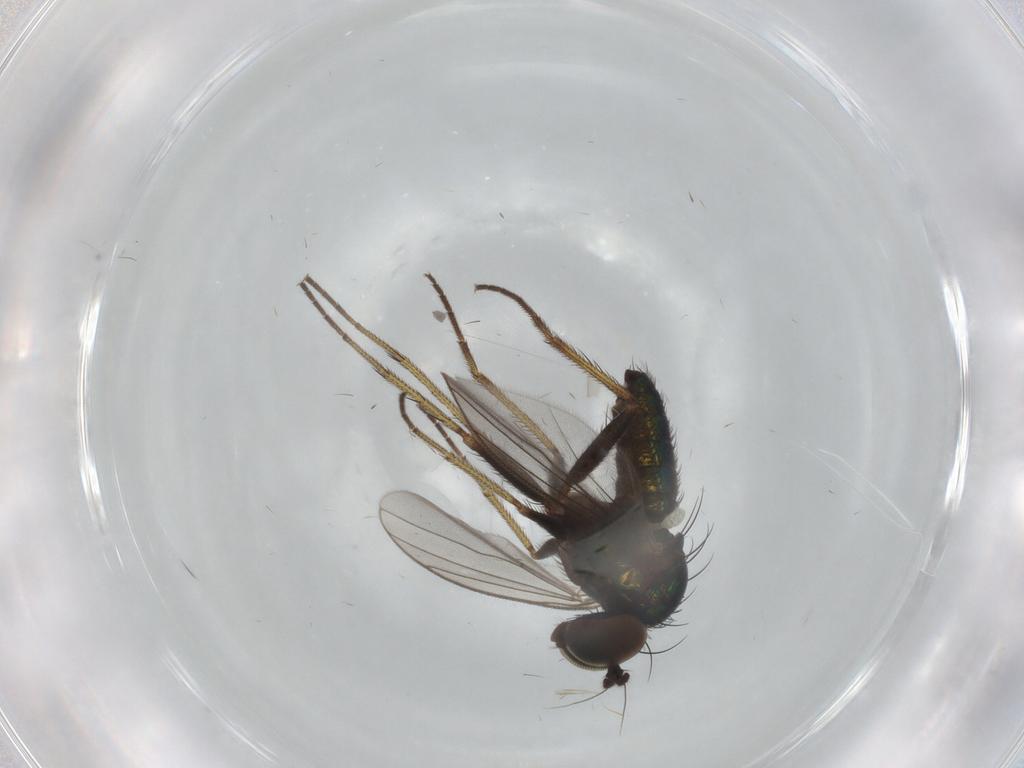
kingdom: Animalia
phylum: Arthropoda
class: Insecta
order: Diptera
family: Dolichopodidae
